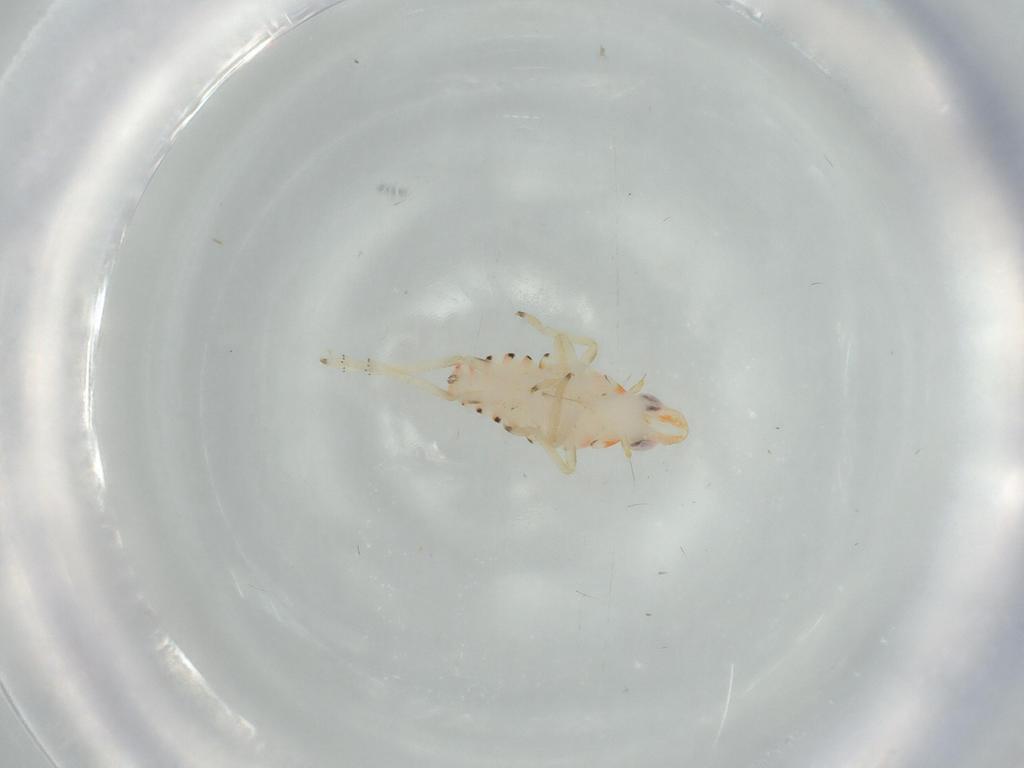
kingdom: Animalia
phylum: Arthropoda
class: Insecta
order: Hemiptera
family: Tropiduchidae
